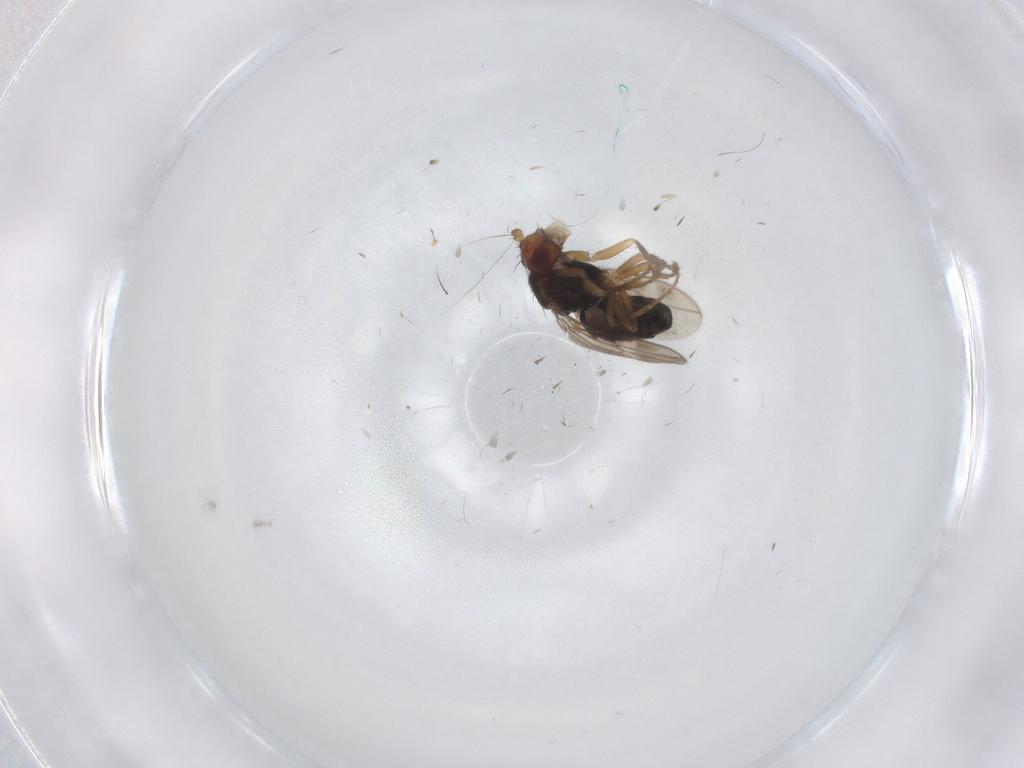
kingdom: Animalia
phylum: Arthropoda
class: Insecta
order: Diptera
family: Sphaeroceridae
